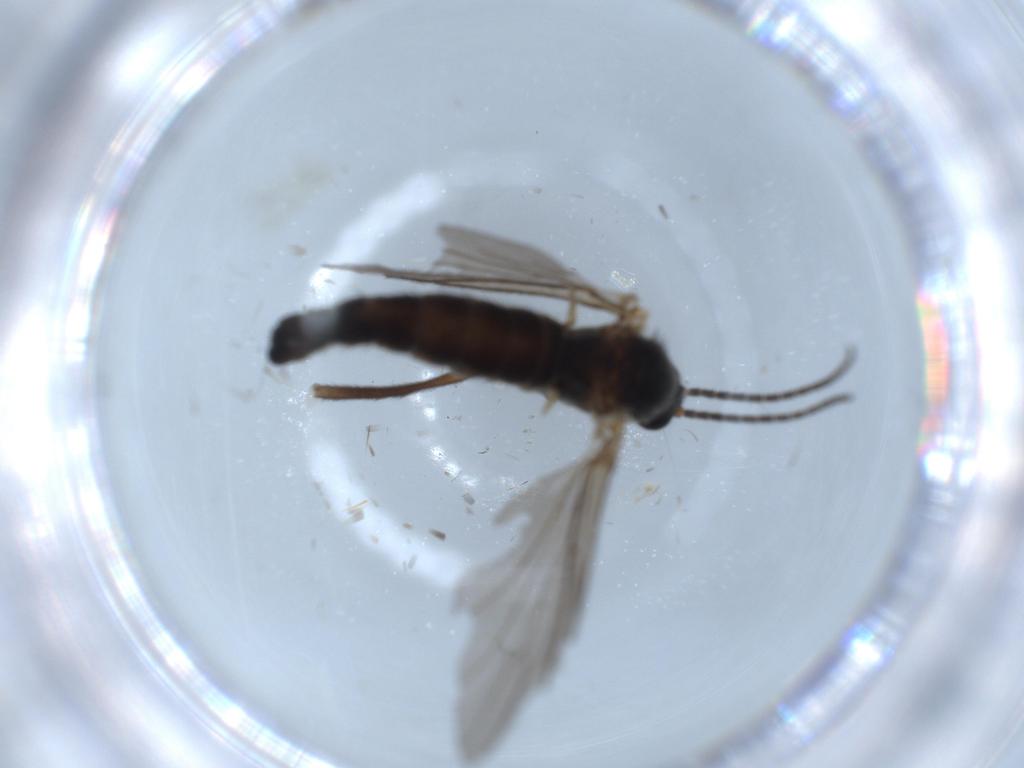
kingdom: Animalia
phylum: Arthropoda
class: Insecta
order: Diptera
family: Sciaridae
